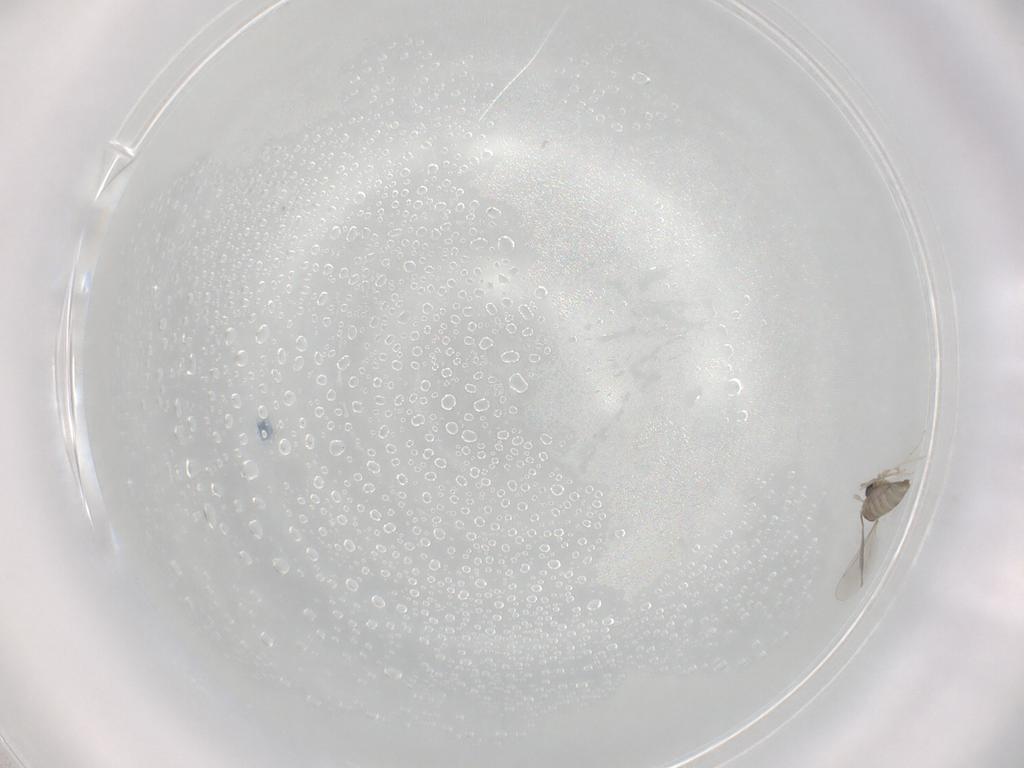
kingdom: Animalia
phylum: Arthropoda
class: Insecta
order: Diptera
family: Cecidomyiidae
